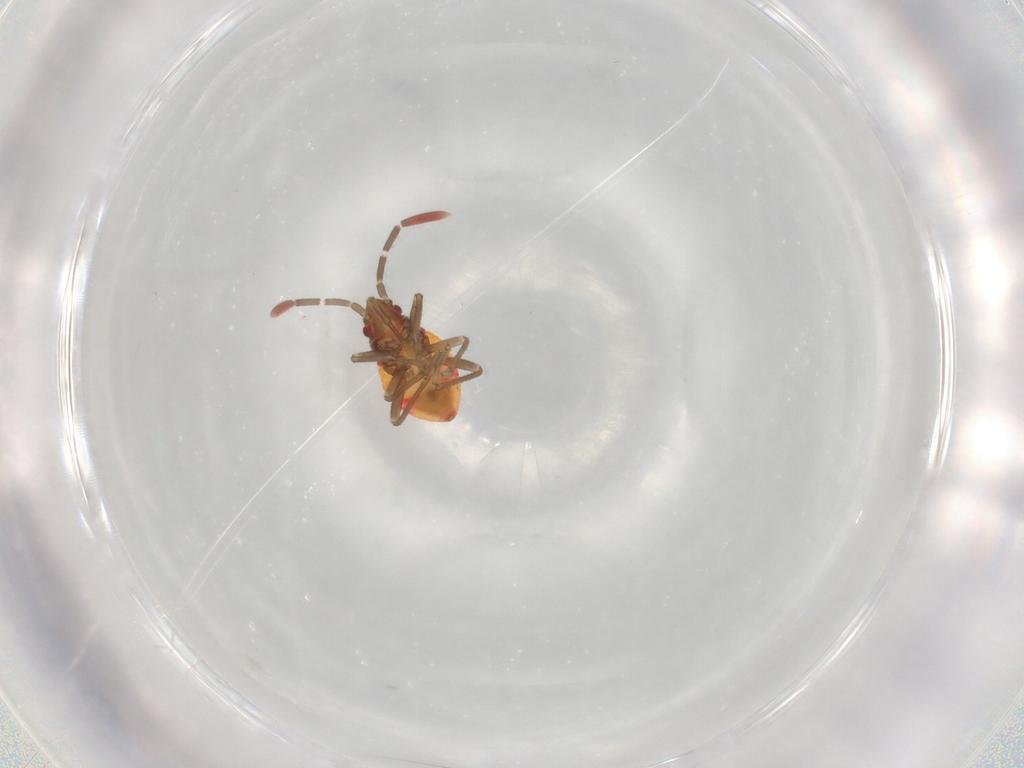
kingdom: Animalia
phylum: Arthropoda
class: Insecta
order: Hemiptera
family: Rhyparochromidae
